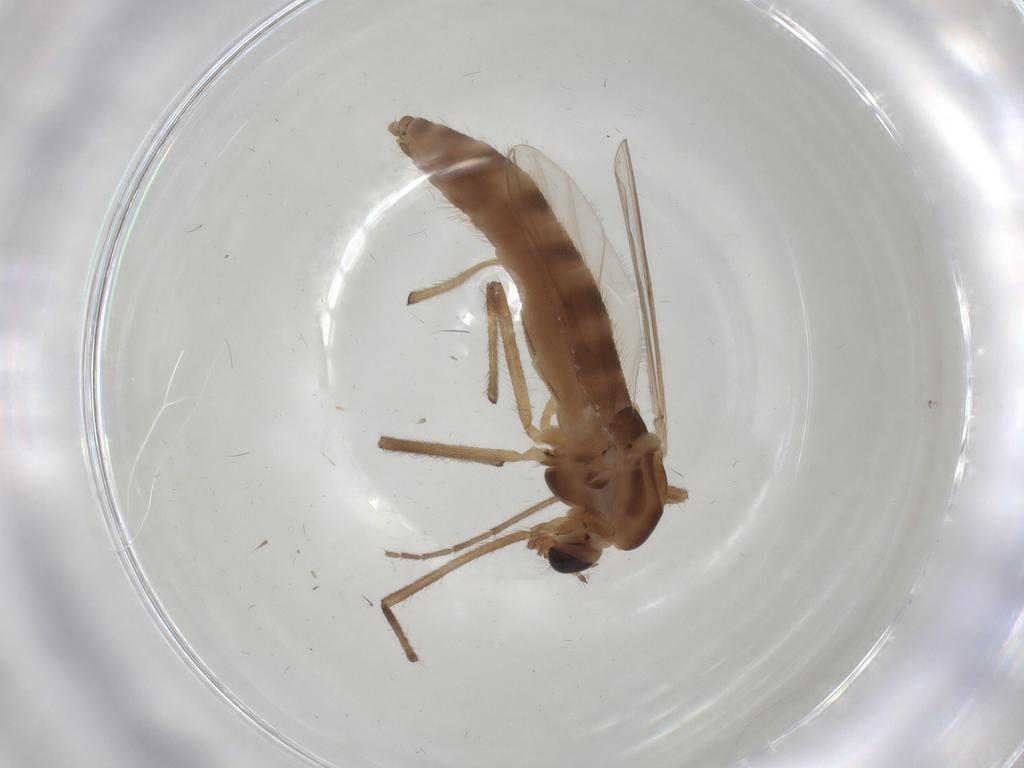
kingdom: Animalia
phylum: Arthropoda
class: Insecta
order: Diptera
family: Chironomidae
